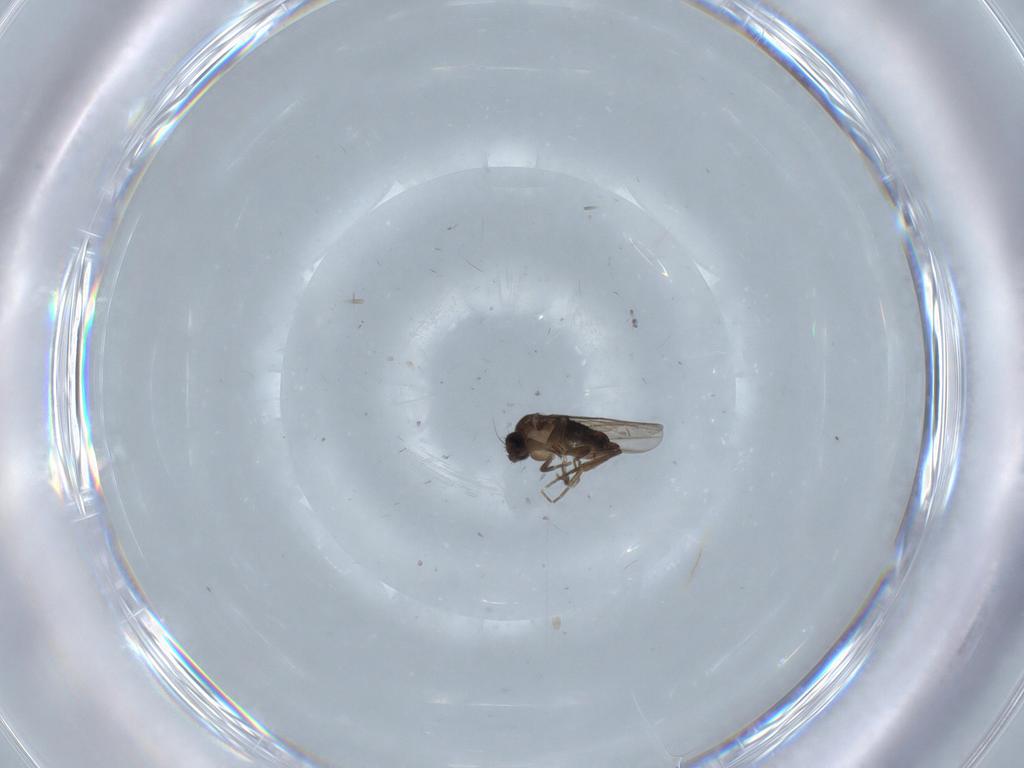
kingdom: Animalia
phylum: Arthropoda
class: Insecta
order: Diptera
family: Phoridae
